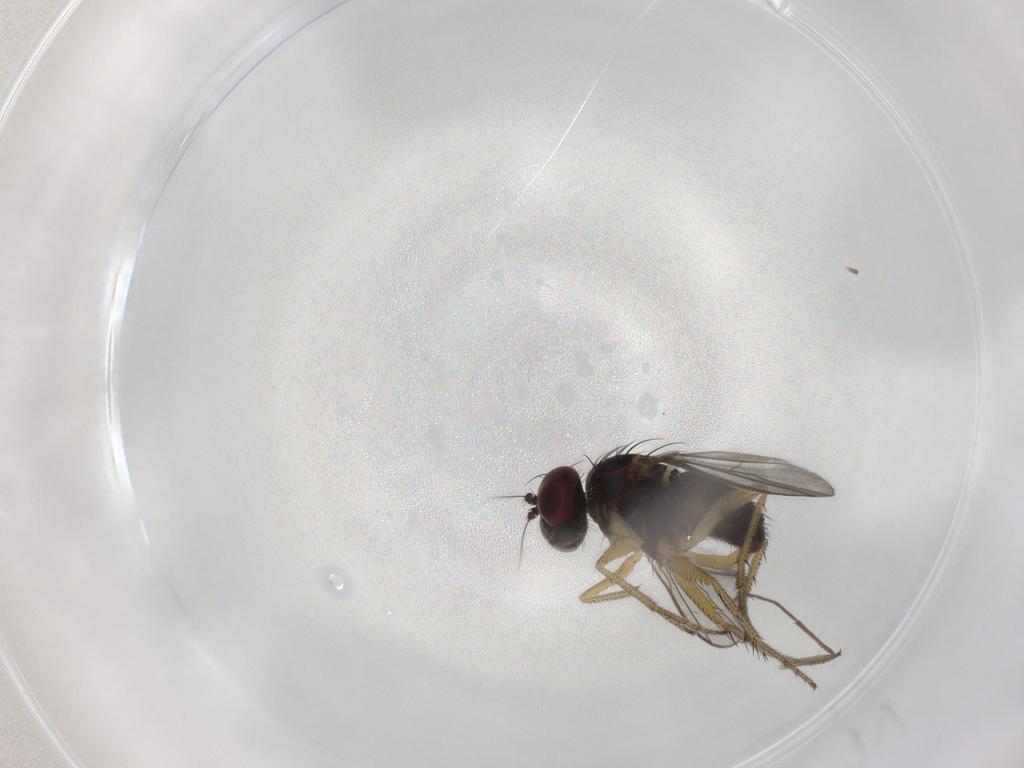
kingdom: Animalia
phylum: Arthropoda
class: Insecta
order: Diptera
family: Chironomidae
